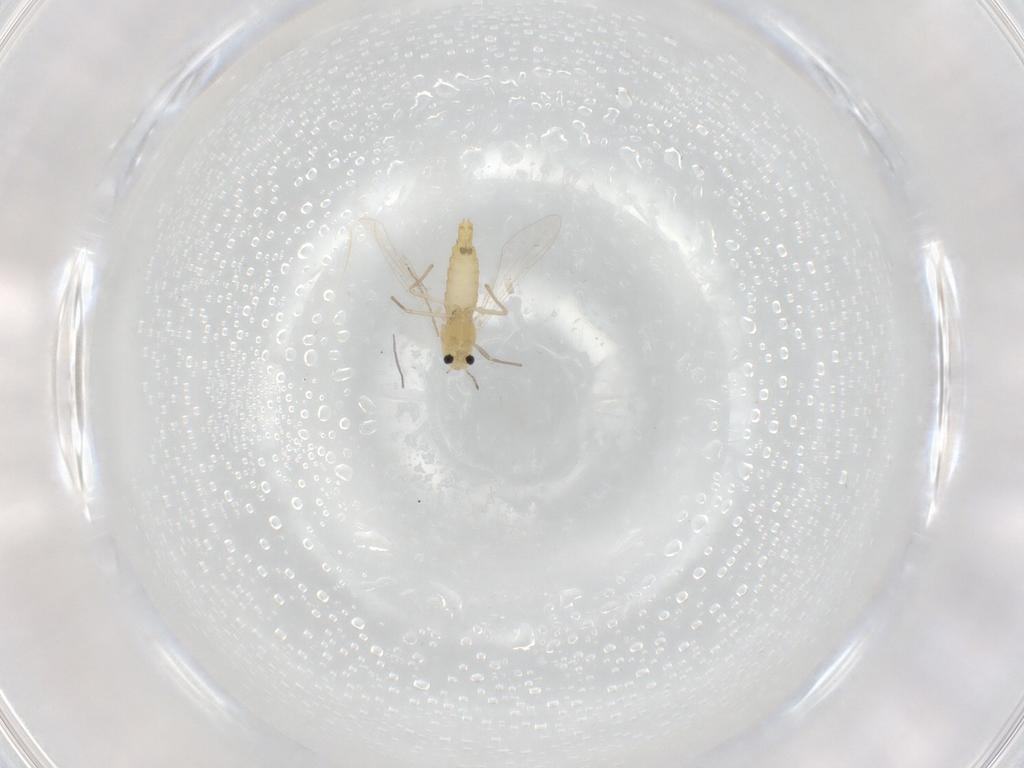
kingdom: Animalia
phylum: Arthropoda
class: Insecta
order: Diptera
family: Chironomidae
